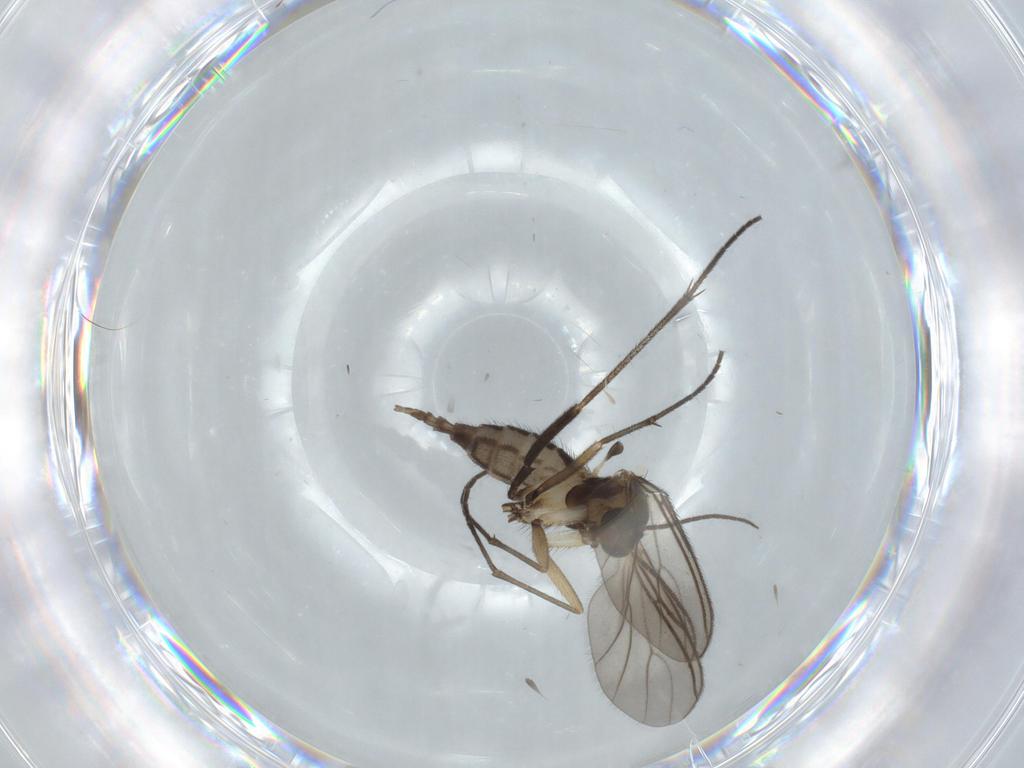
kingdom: Animalia
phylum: Arthropoda
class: Insecta
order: Diptera
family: Sciaridae
